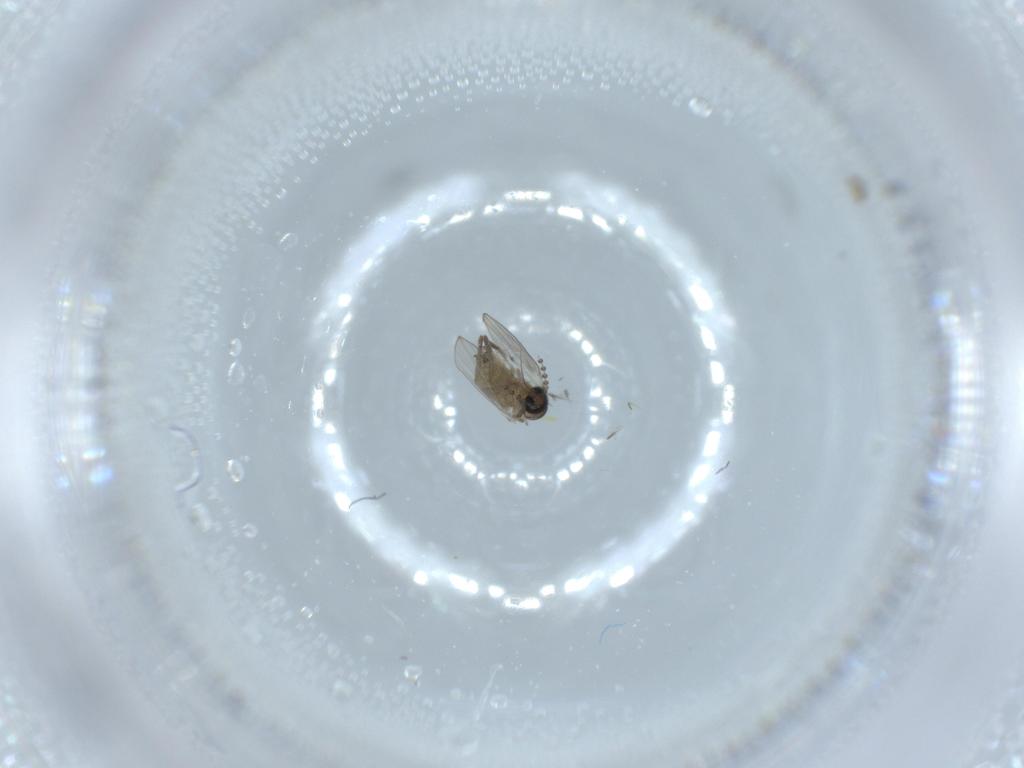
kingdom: Animalia
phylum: Arthropoda
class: Insecta
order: Diptera
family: Psychodidae
